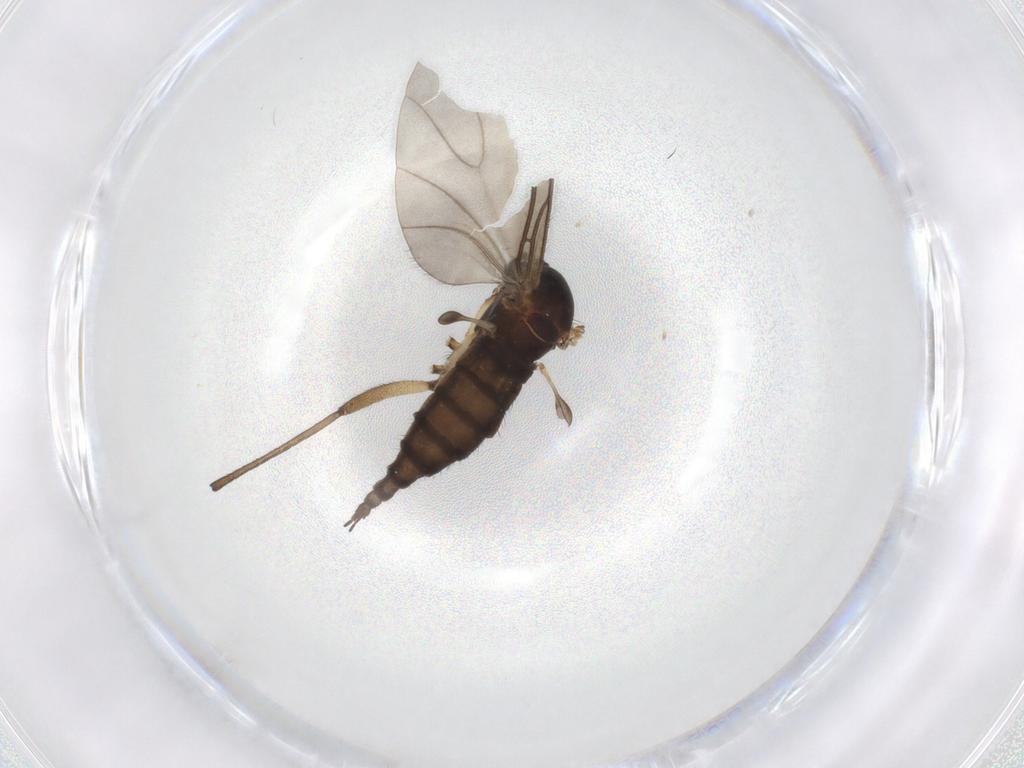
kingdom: Animalia
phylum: Arthropoda
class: Insecta
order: Diptera
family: Sciaridae
